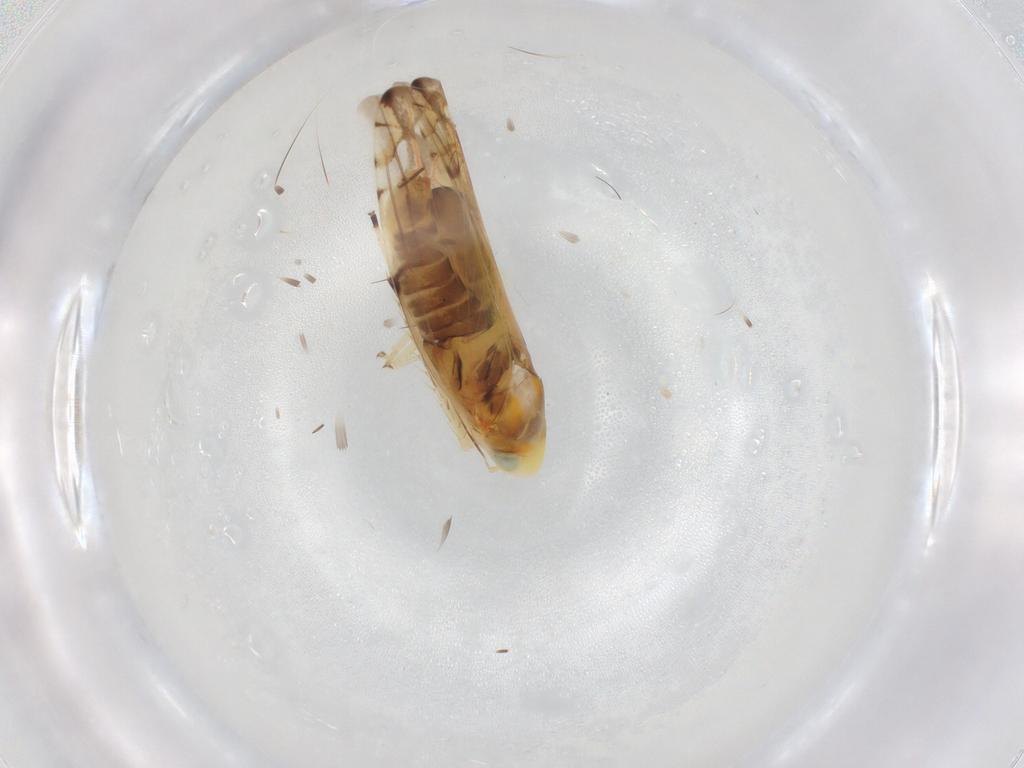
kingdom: Animalia
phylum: Arthropoda
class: Insecta
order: Hemiptera
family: Cicadellidae
